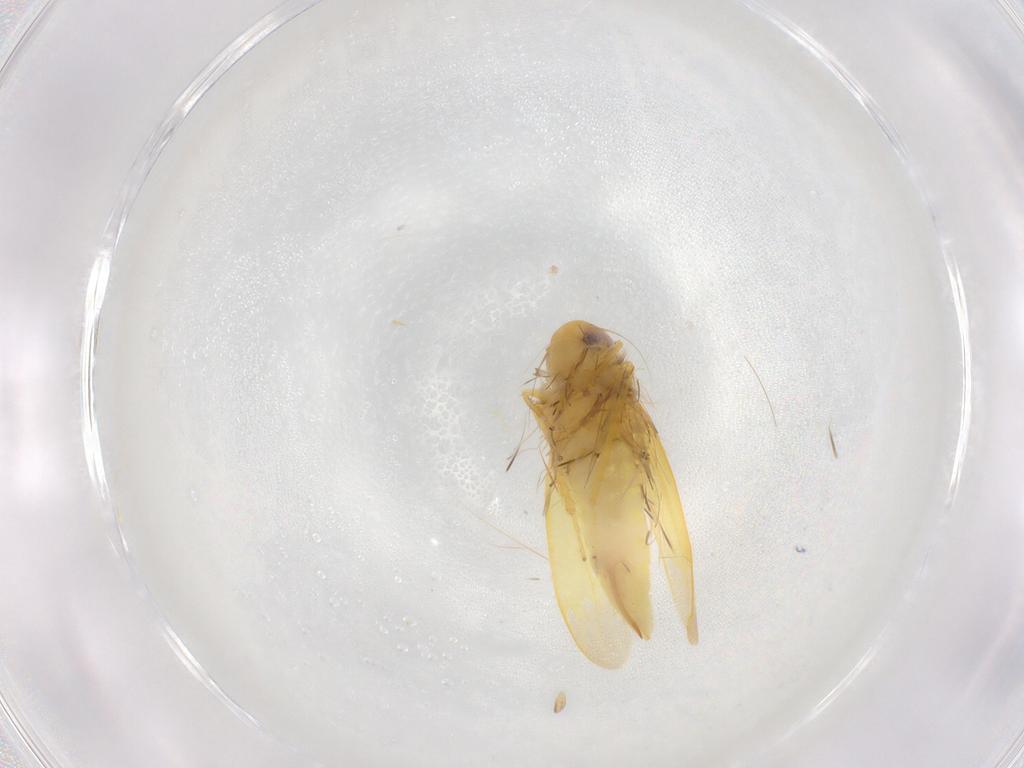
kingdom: Animalia
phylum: Arthropoda
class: Insecta
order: Hemiptera
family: Cicadellidae
